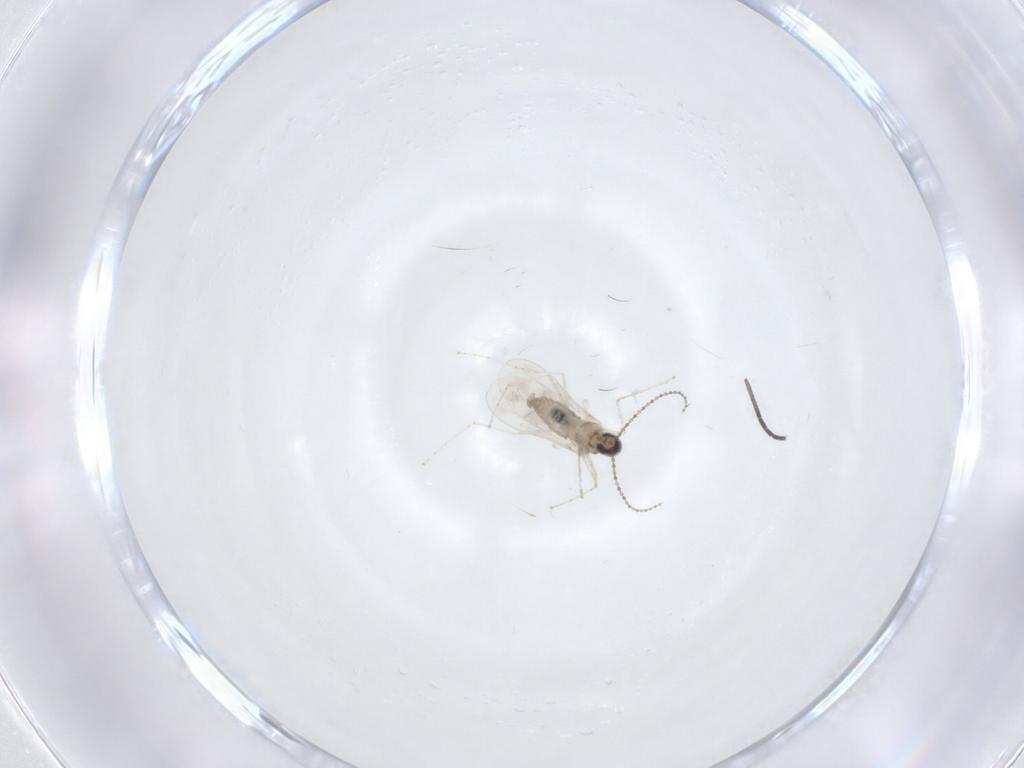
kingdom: Animalia
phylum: Arthropoda
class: Insecta
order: Diptera
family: Cecidomyiidae
